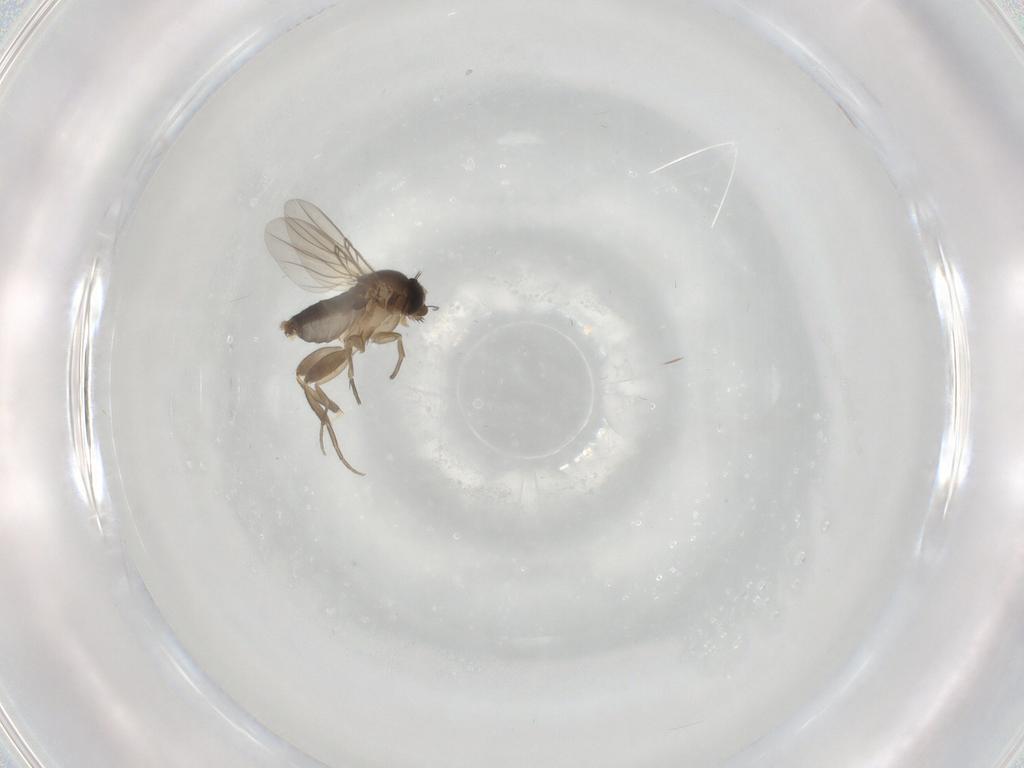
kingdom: Animalia
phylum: Arthropoda
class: Insecta
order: Diptera
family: Phoridae
